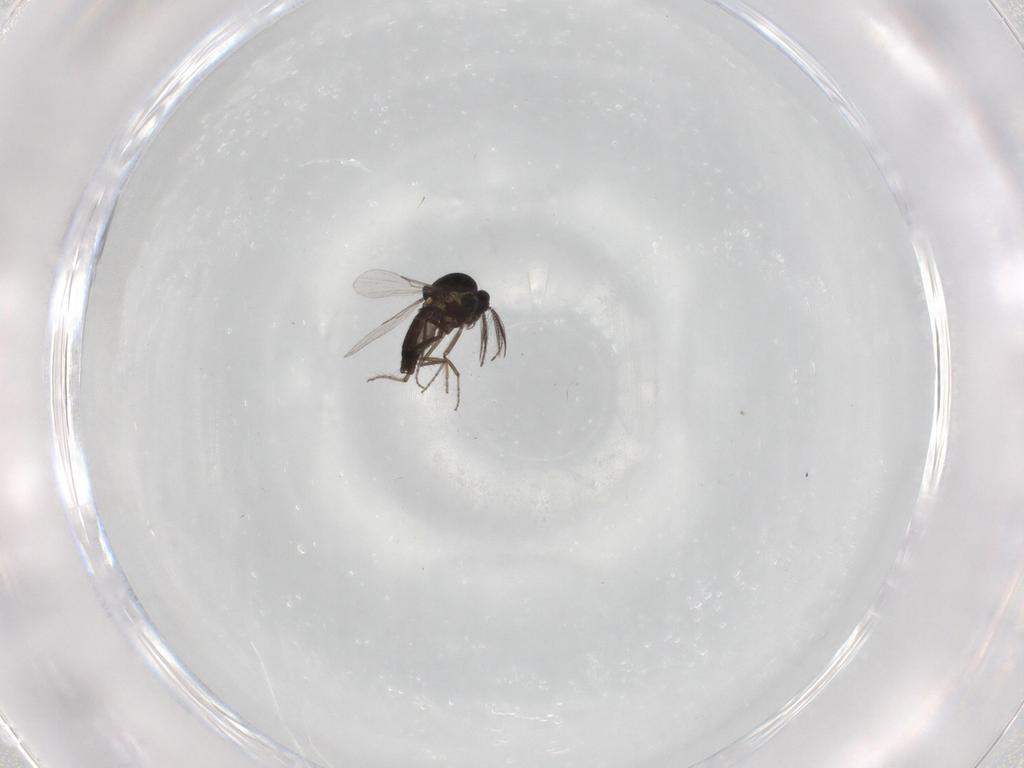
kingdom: Animalia
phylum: Arthropoda
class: Insecta
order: Diptera
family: Ceratopogonidae
